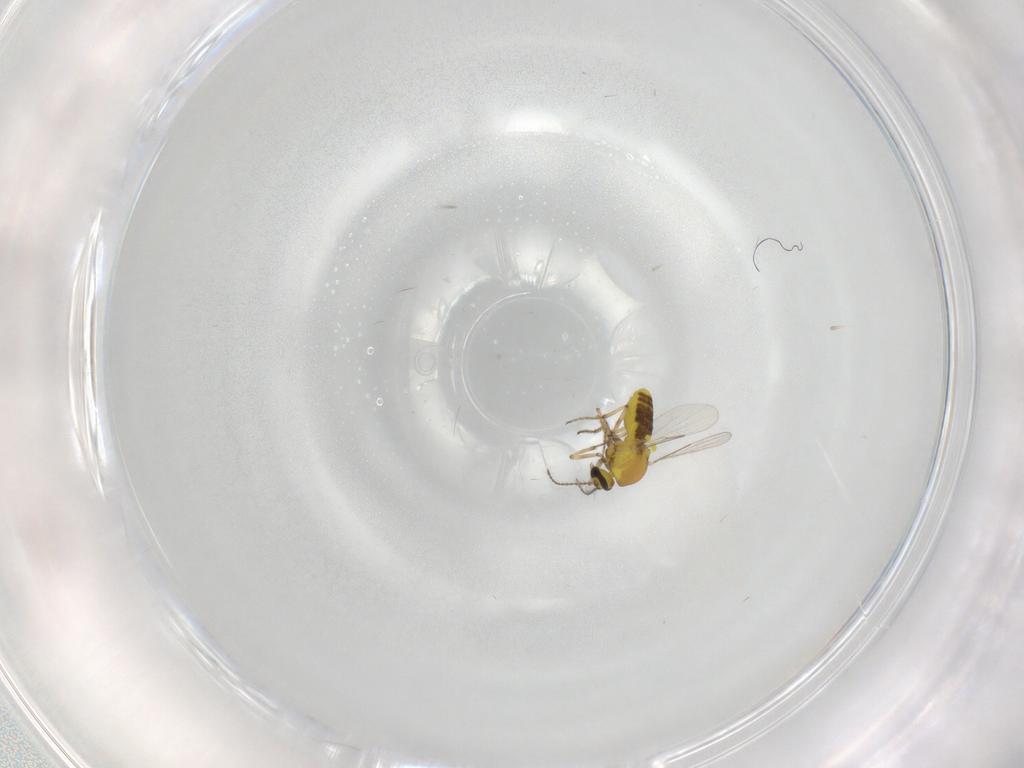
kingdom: Animalia
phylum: Arthropoda
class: Insecta
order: Diptera
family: Ceratopogonidae
